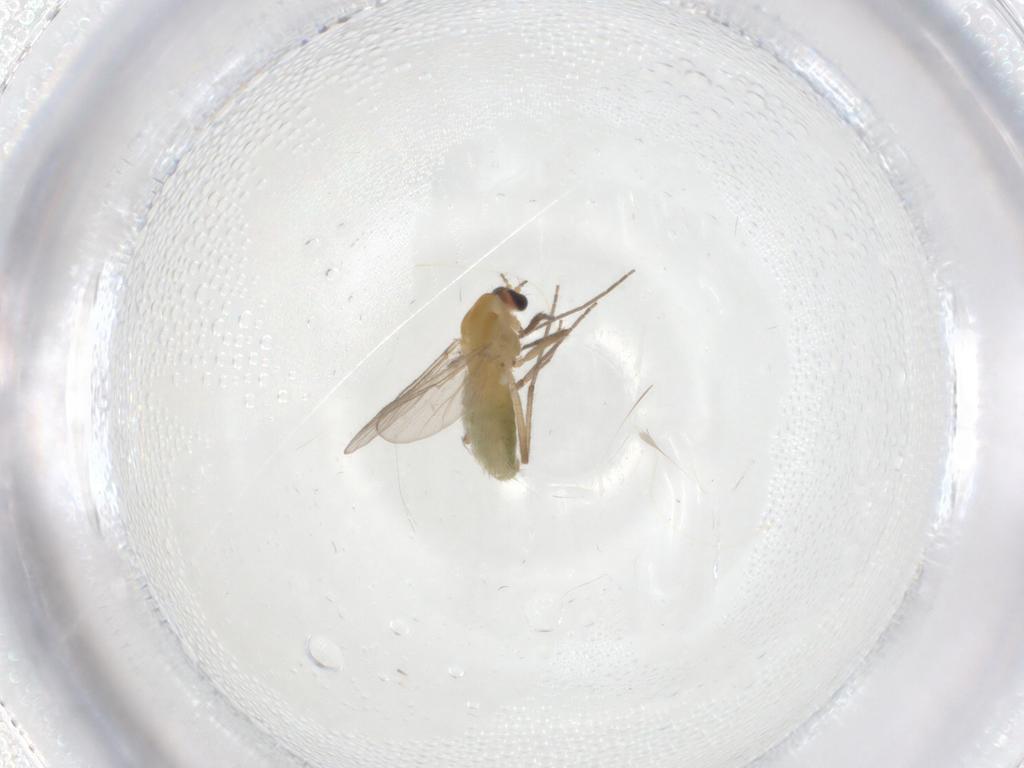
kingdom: Animalia
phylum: Arthropoda
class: Insecta
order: Diptera
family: Chironomidae
